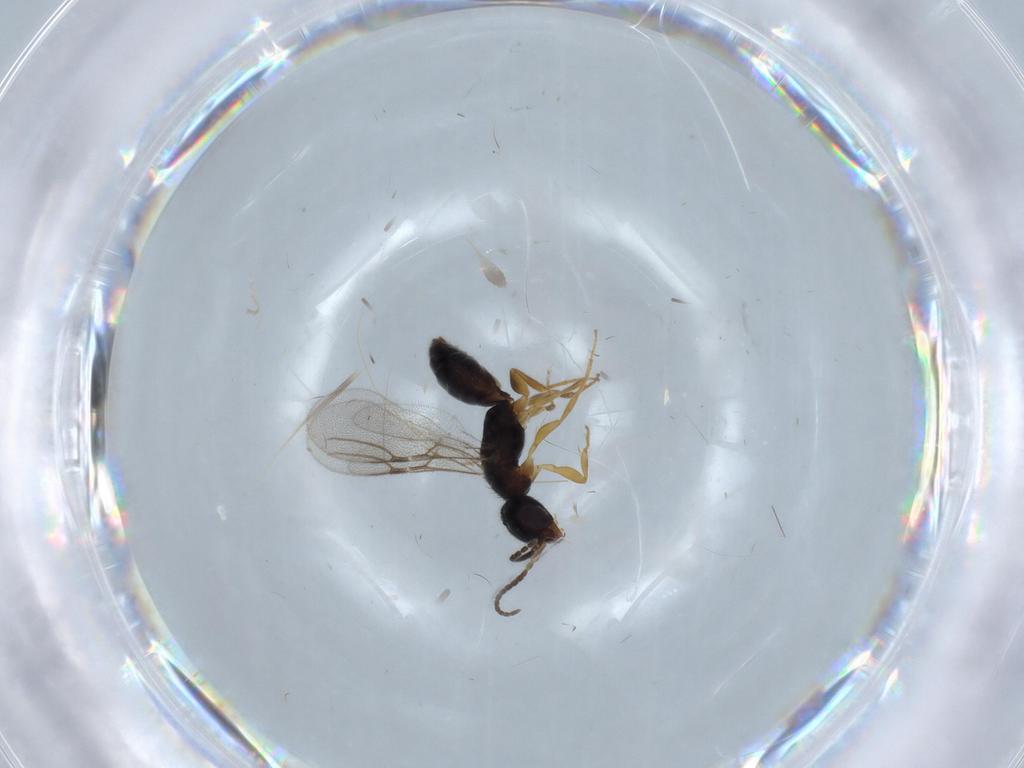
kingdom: Animalia
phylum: Arthropoda
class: Insecta
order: Hymenoptera
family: Bethylidae
